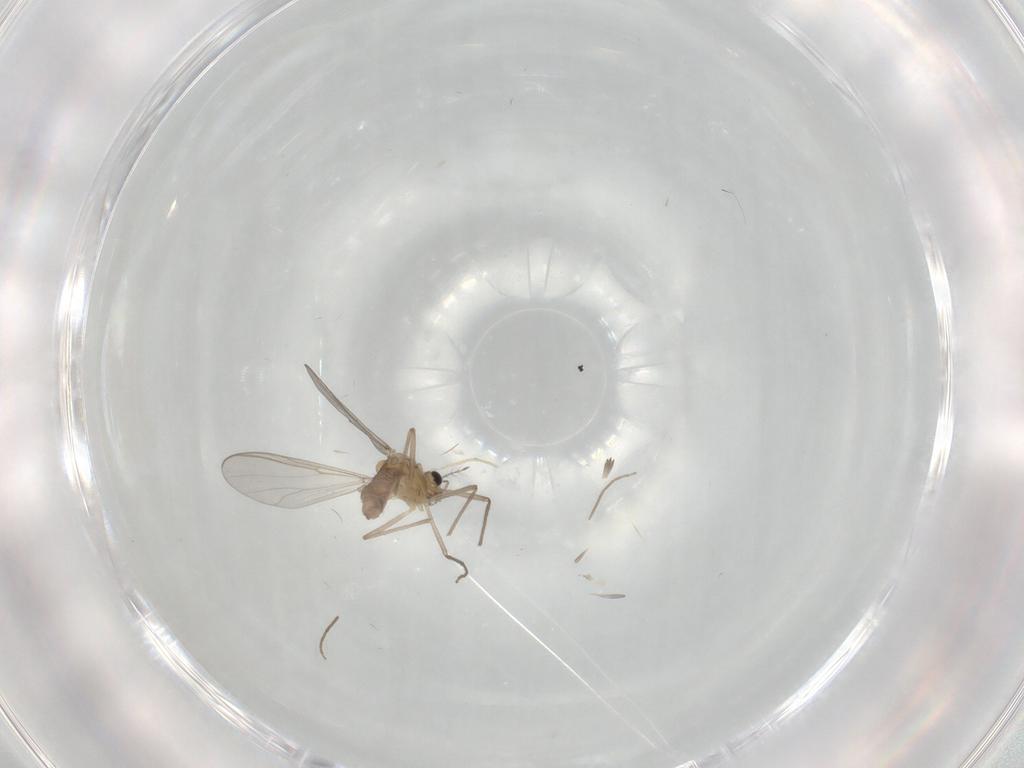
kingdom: Animalia
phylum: Arthropoda
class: Insecta
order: Diptera
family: Chironomidae
